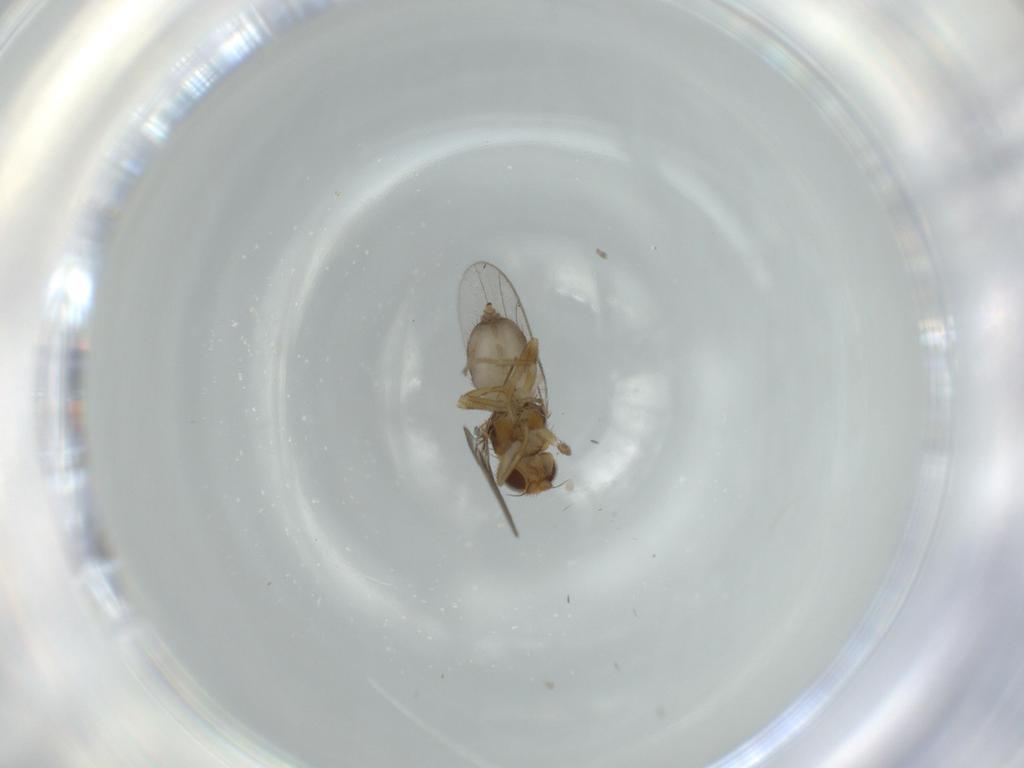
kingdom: Animalia
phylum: Arthropoda
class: Insecta
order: Diptera
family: Chloropidae
